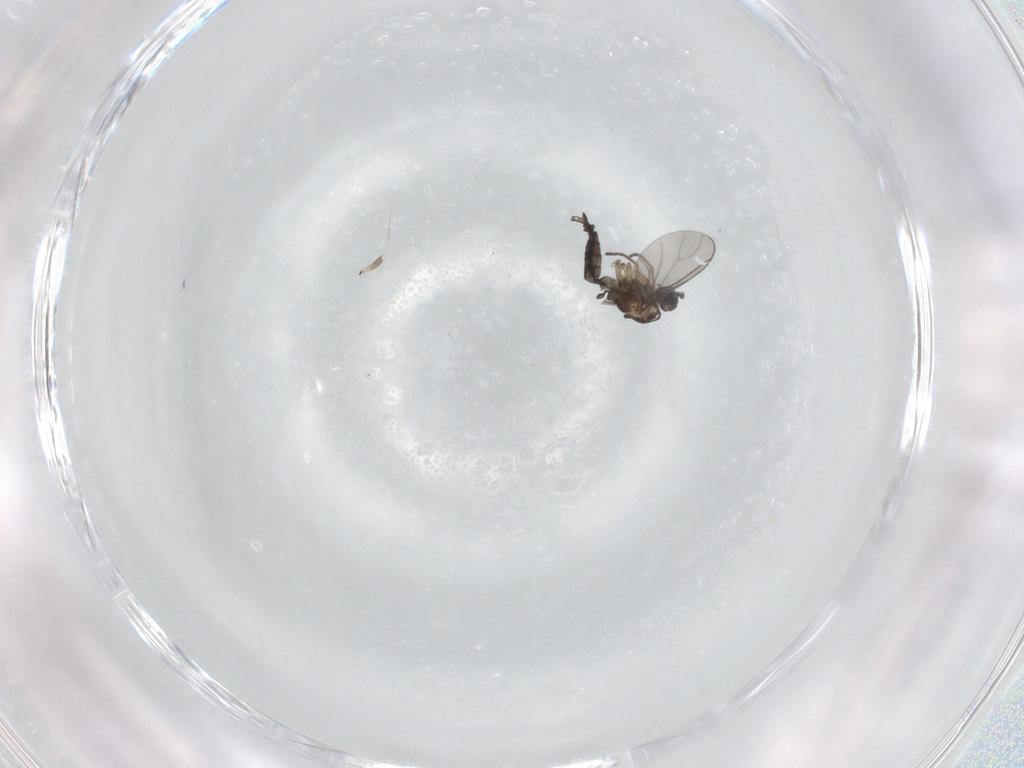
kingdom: Animalia
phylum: Arthropoda
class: Insecta
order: Diptera
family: Sciaridae
